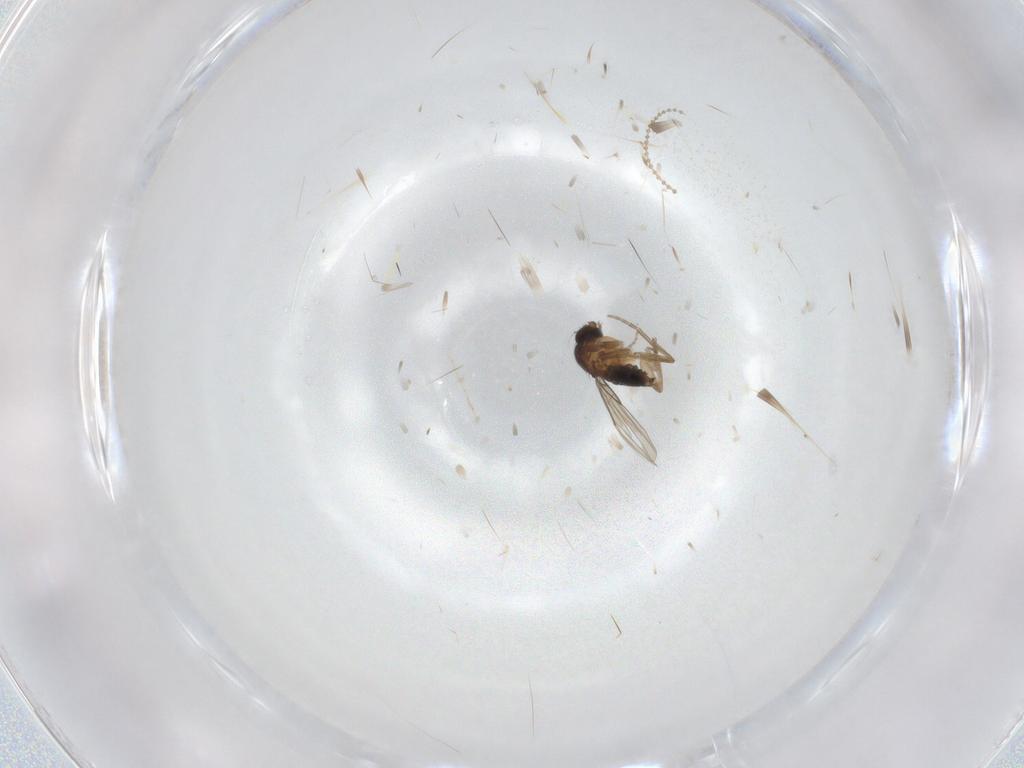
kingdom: Animalia
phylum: Arthropoda
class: Insecta
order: Diptera
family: Phoridae
